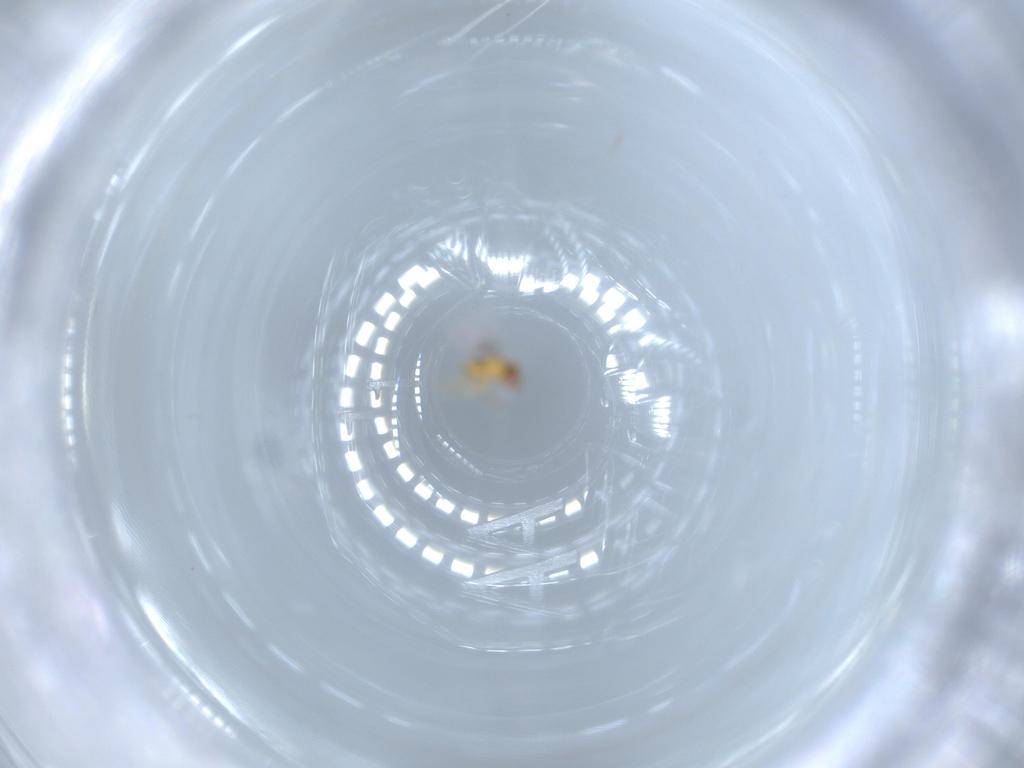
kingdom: Animalia
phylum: Arthropoda
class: Insecta
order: Hymenoptera
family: Trichogrammatidae
